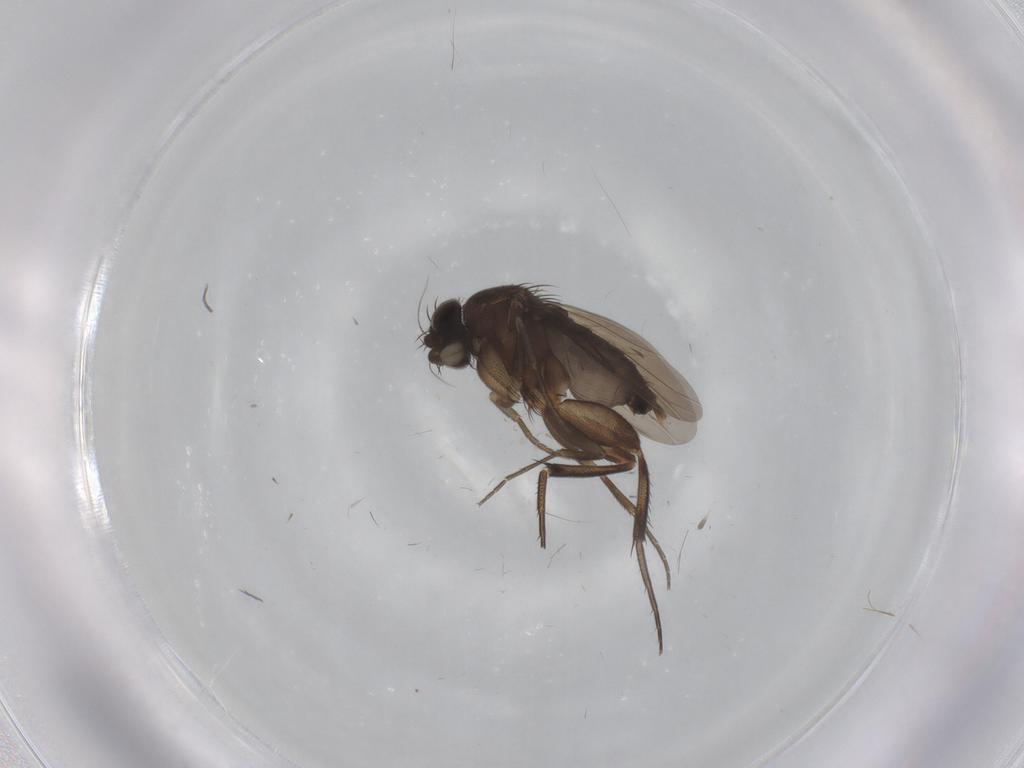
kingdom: Animalia
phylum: Arthropoda
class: Insecta
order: Diptera
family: Phoridae
